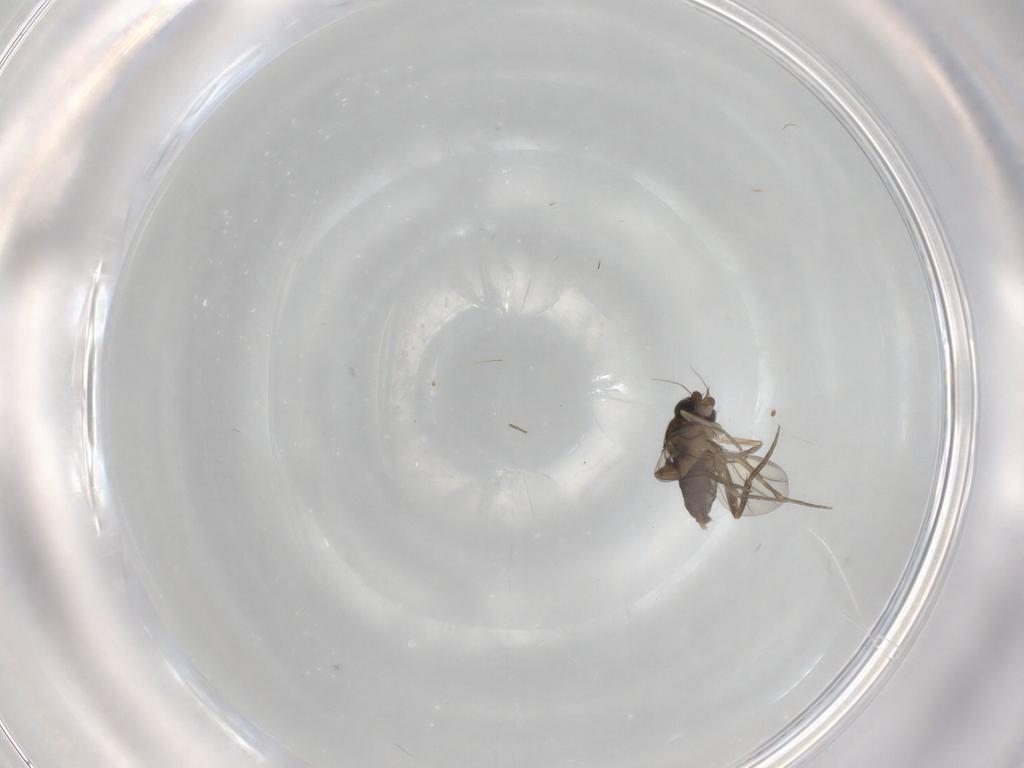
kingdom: Animalia
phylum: Arthropoda
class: Insecta
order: Diptera
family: Phoridae
